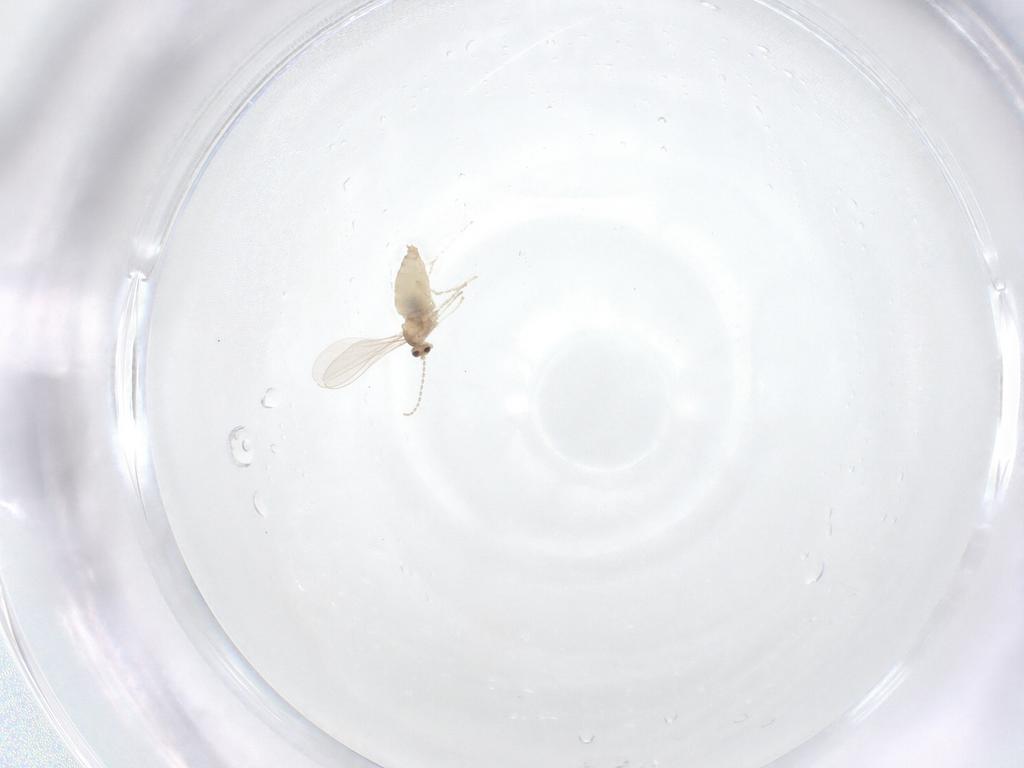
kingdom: Animalia
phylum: Arthropoda
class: Insecta
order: Diptera
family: Cecidomyiidae
